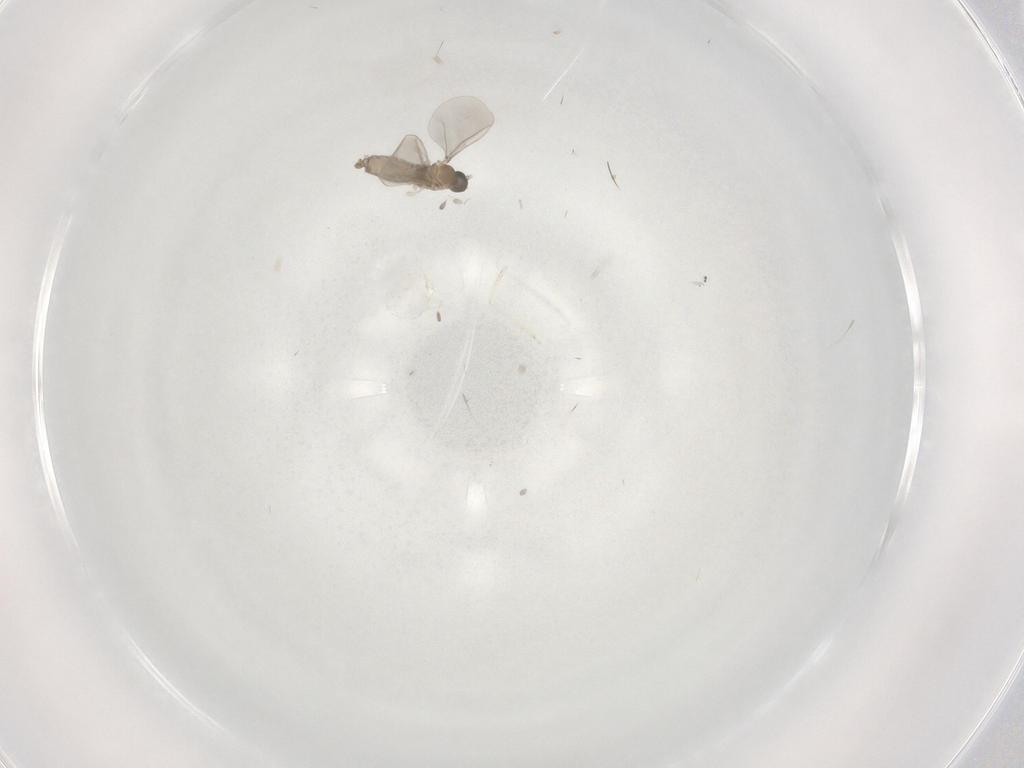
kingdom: Animalia
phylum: Arthropoda
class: Insecta
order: Diptera
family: Cecidomyiidae
